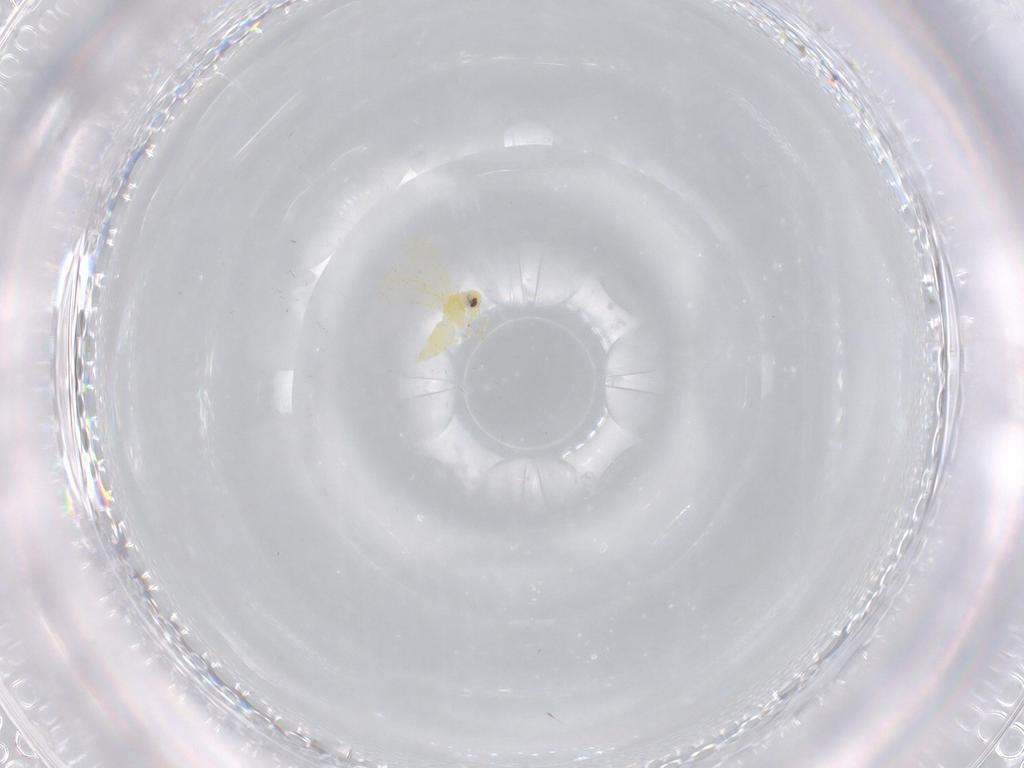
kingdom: Animalia
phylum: Arthropoda
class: Insecta
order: Hemiptera
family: Aleyrodidae
